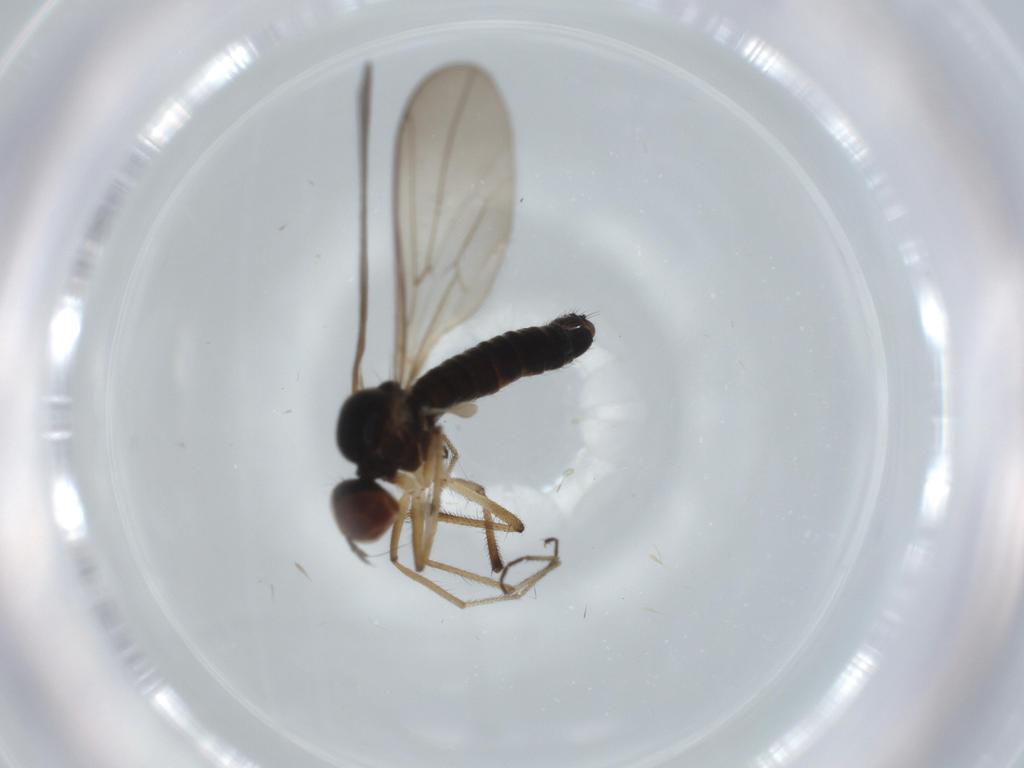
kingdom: Animalia
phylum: Arthropoda
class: Insecta
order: Diptera
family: Hybotidae
